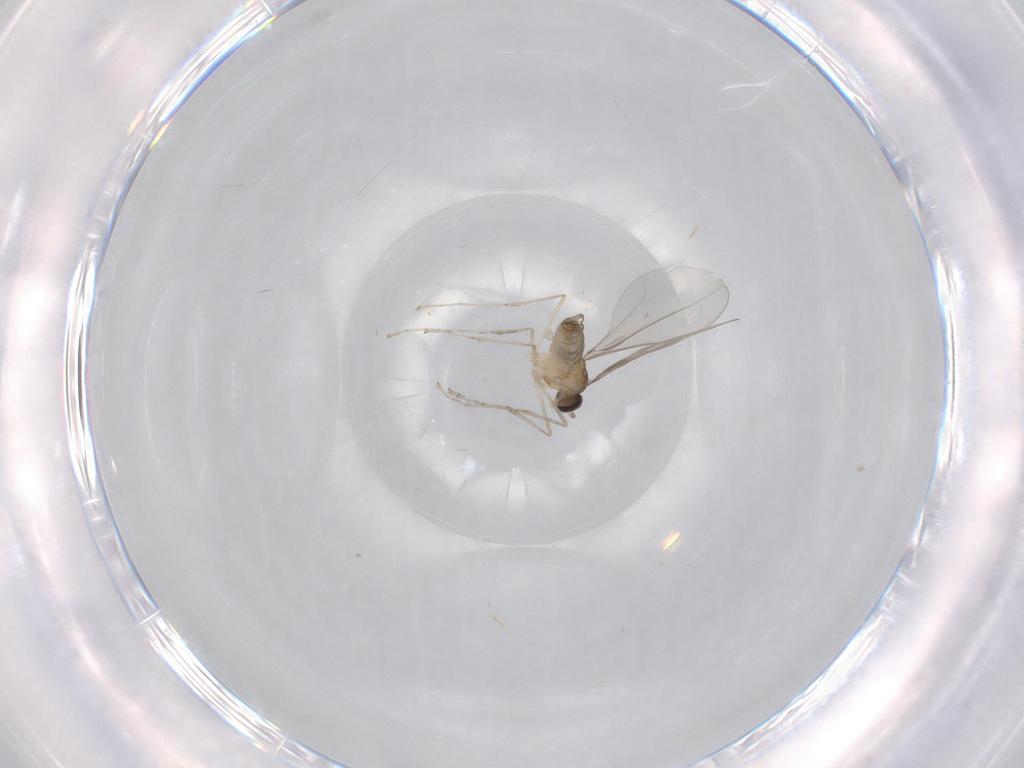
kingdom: Animalia
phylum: Arthropoda
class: Insecta
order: Diptera
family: Cecidomyiidae
